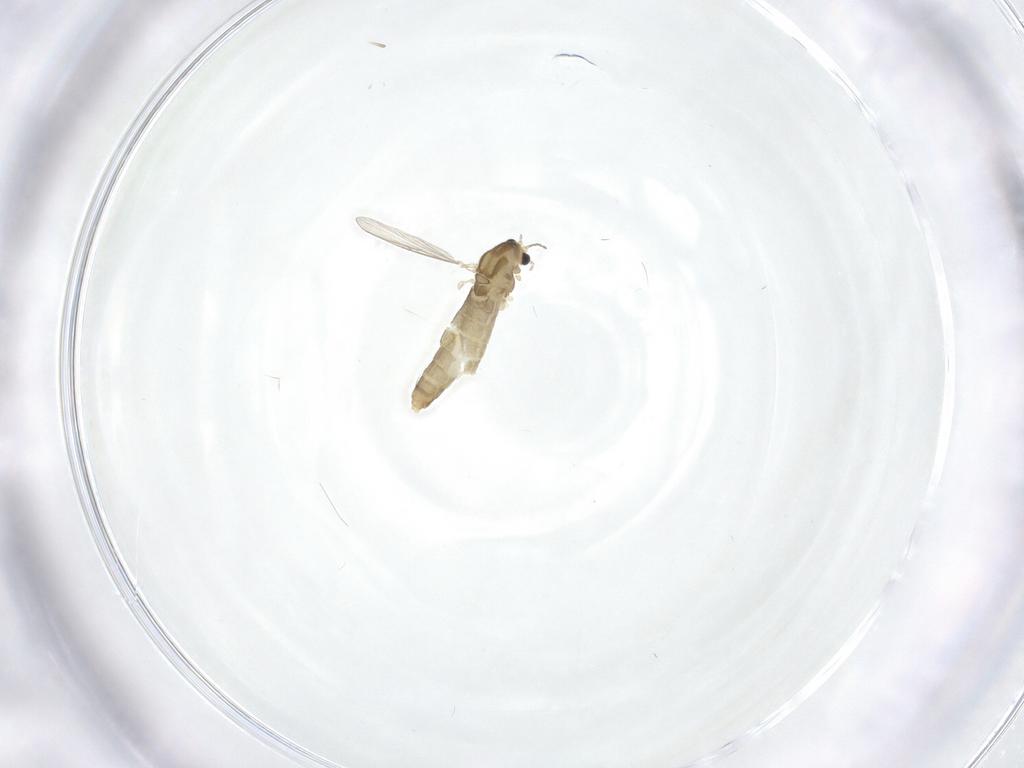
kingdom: Animalia
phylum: Arthropoda
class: Insecta
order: Diptera
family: Chironomidae
